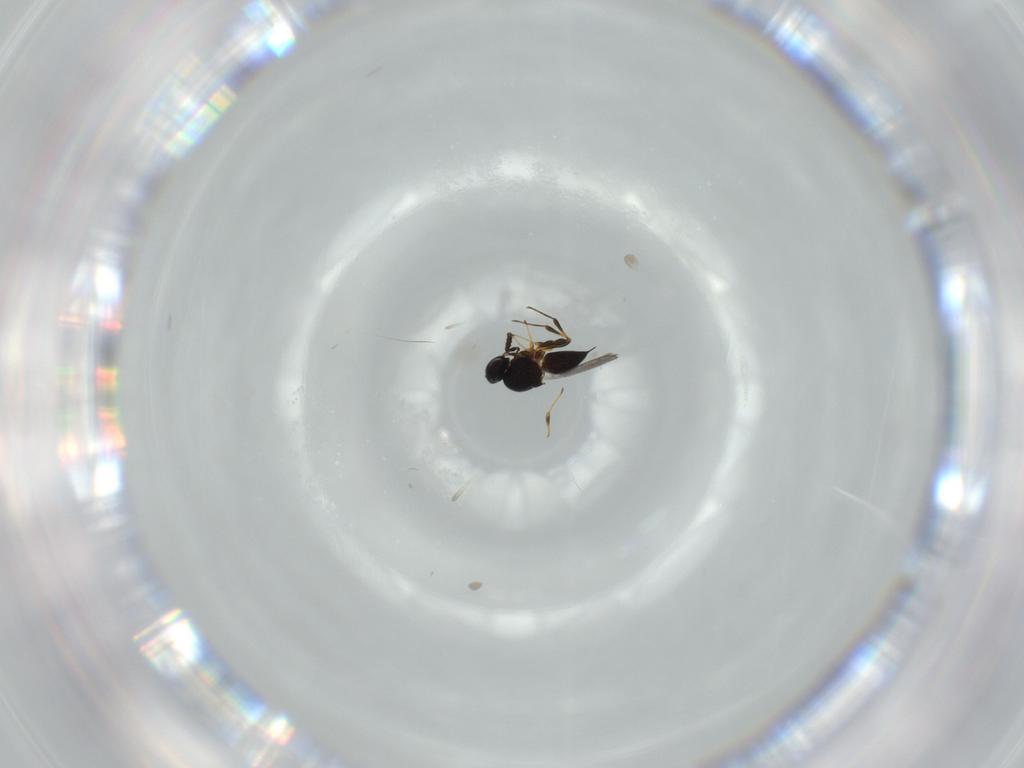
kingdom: Animalia
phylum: Arthropoda
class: Insecta
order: Hymenoptera
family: Platygastridae
